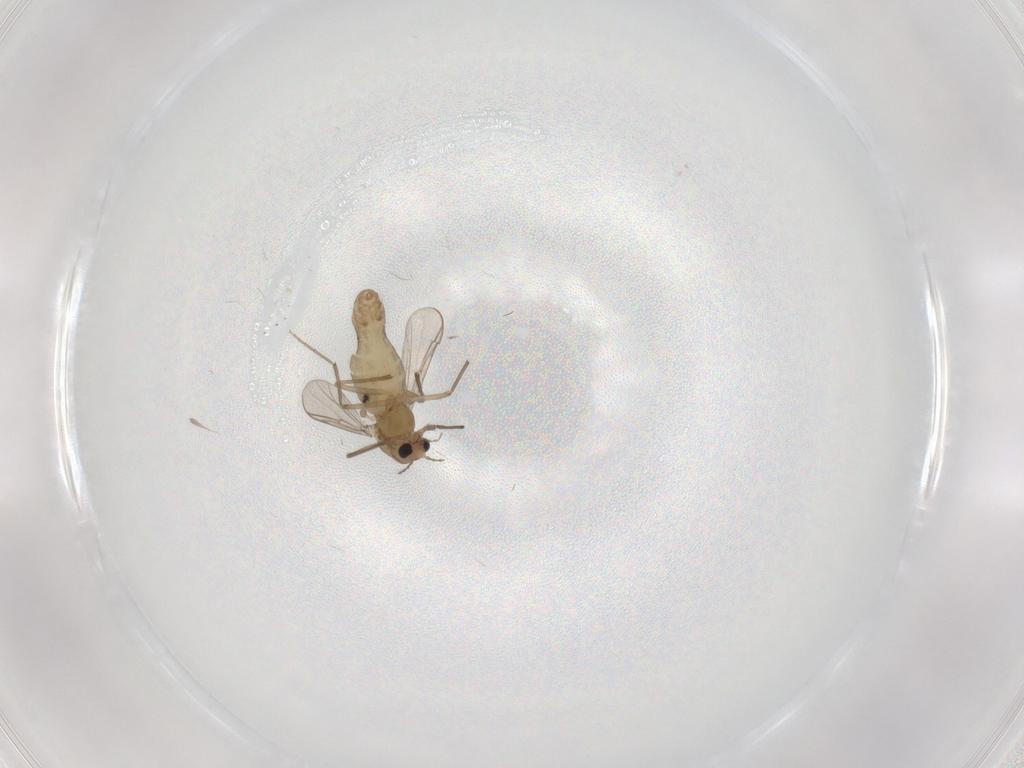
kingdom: Animalia
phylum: Arthropoda
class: Insecta
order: Diptera
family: Chironomidae
